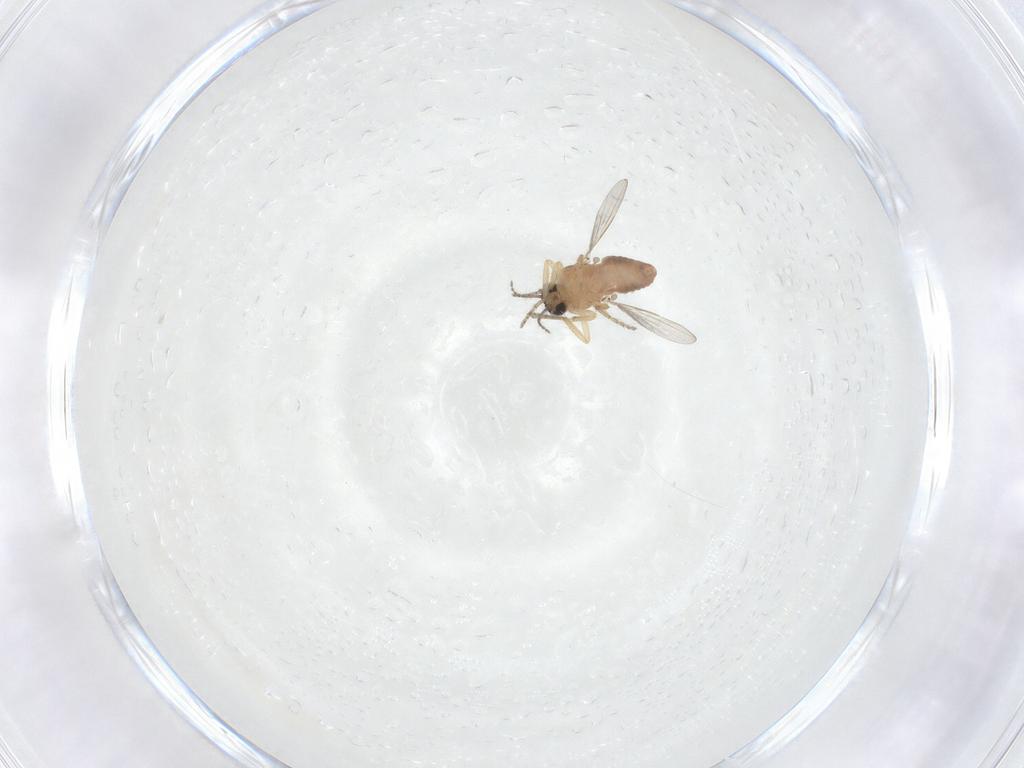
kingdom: Animalia
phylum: Arthropoda
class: Insecta
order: Diptera
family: Ceratopogonidae
